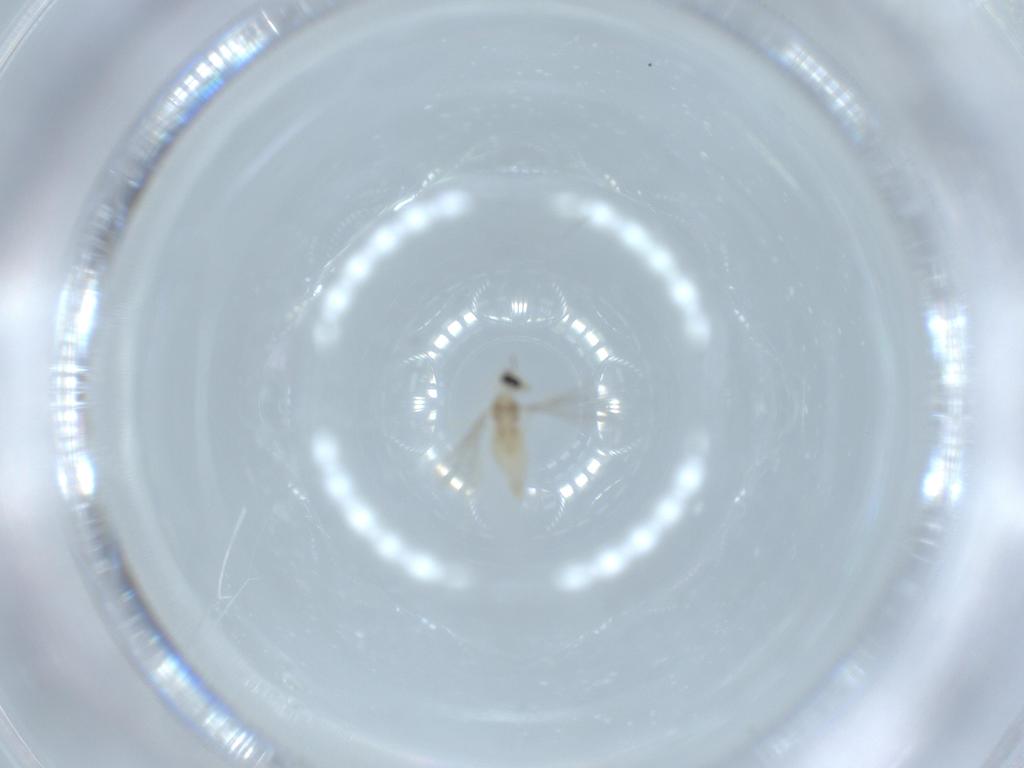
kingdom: Animalia
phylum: Arthropoda
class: Insecta
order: Diptera
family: Cecidomyiidae
